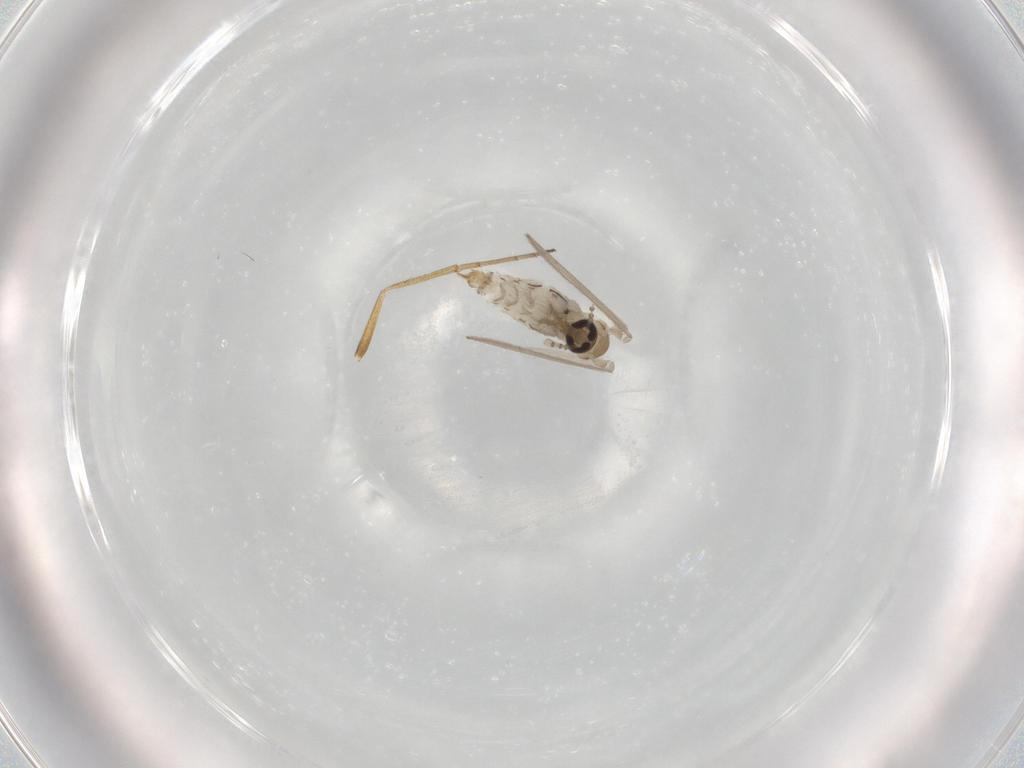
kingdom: Animalia
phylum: Arthropoda
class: Insecta
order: Diptera
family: Psychodidae
